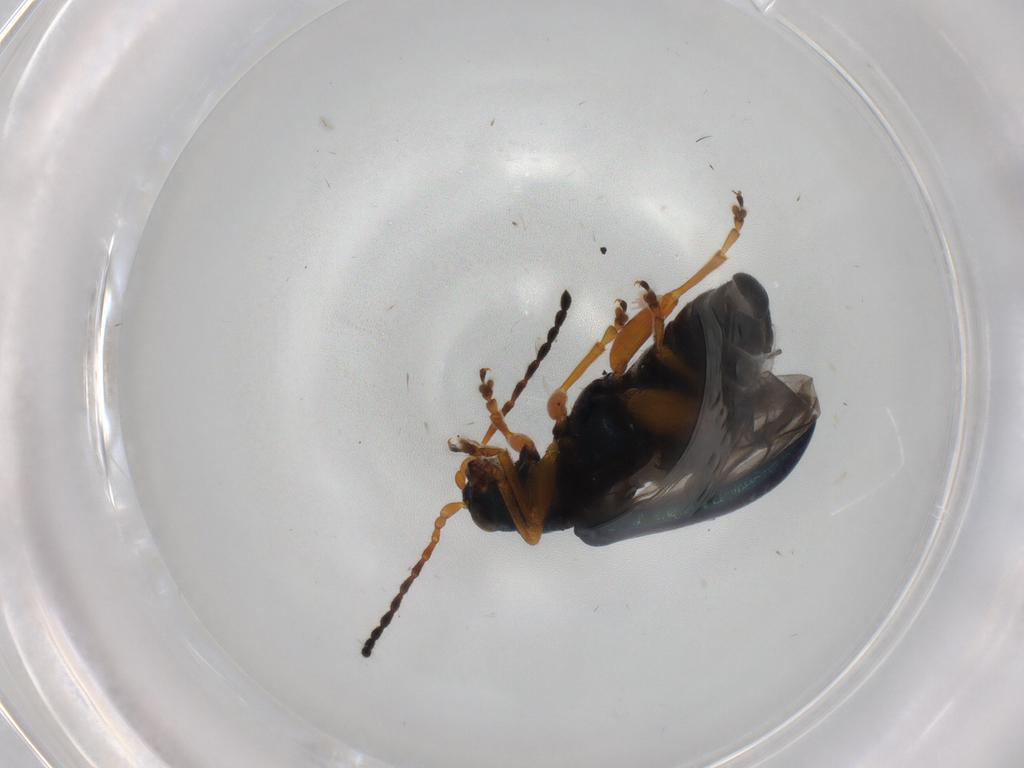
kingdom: Animalia
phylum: Arthropoda
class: Insecta
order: Coleoptera
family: Chrysomelidae
